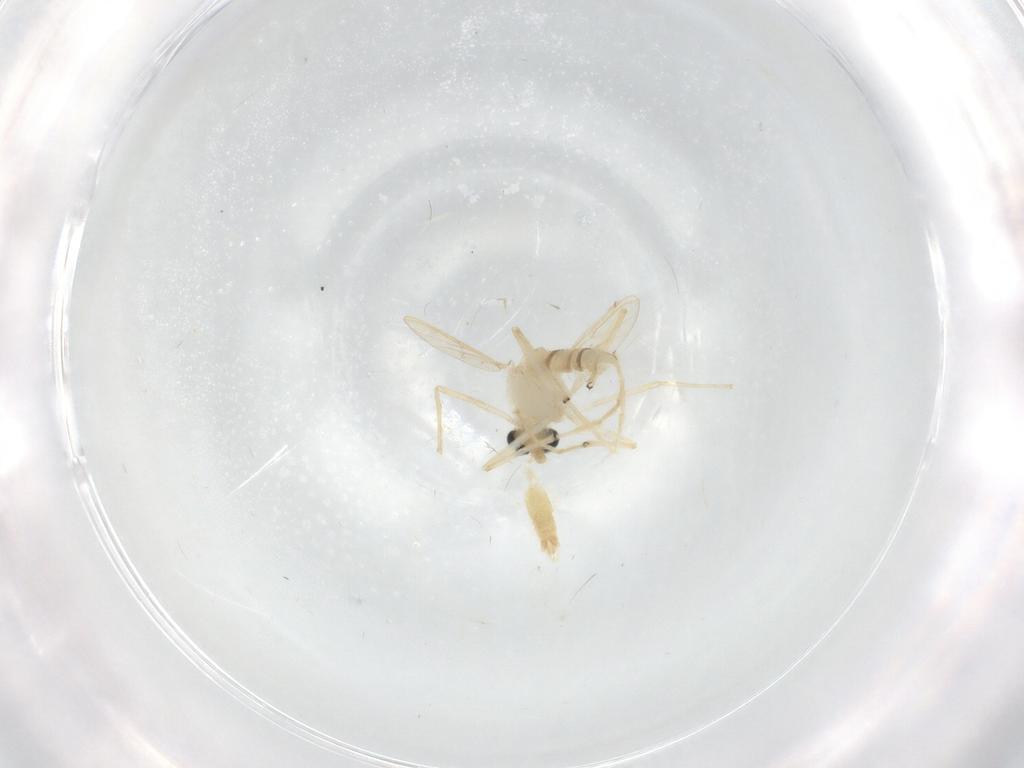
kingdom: Animalia
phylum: Arthropoda
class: Insecta
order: Diptera
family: Chironomidae
